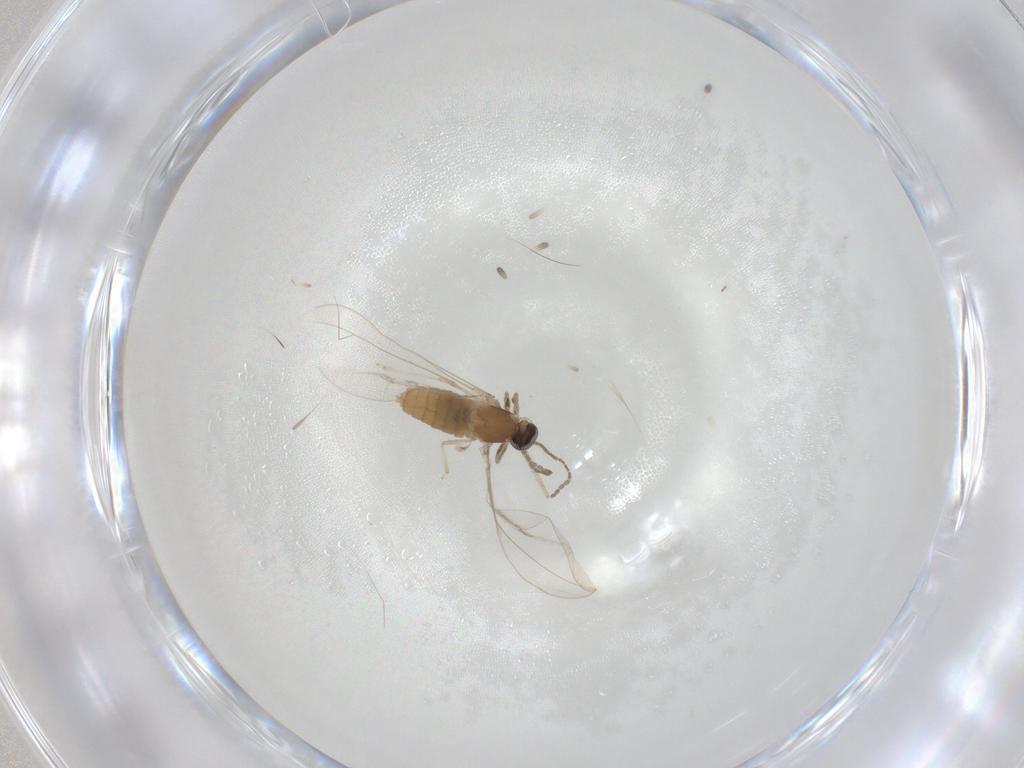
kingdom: Animalia
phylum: Arthropoda
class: Insecta
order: Diptera
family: Cecidomyiidae
